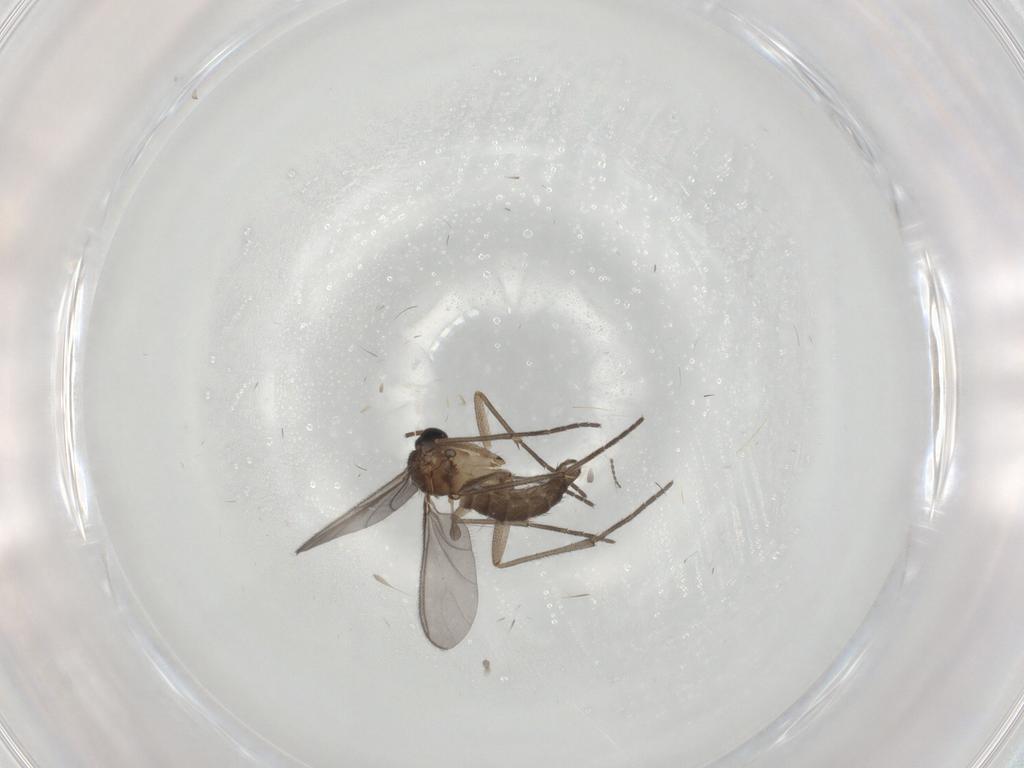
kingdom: Animalia
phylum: Arthropoda
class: Insecta
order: Diptera
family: Sciaridae
